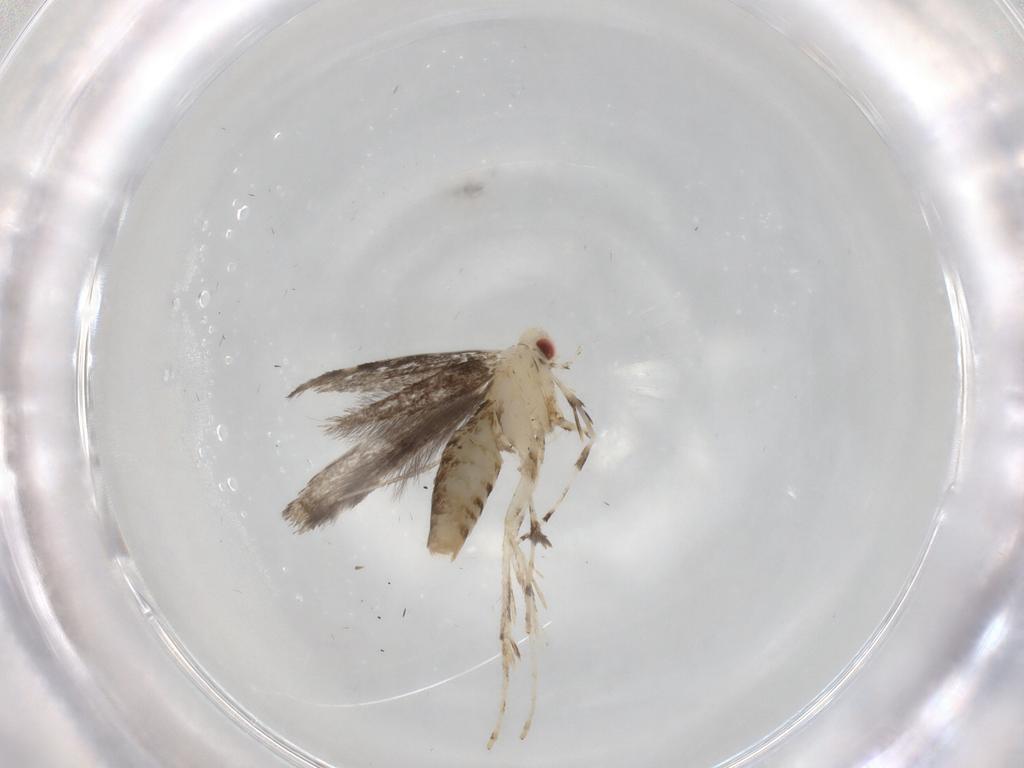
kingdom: Animalia
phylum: Arthropoda
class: Insecta
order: Lepidoptera
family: Gracillariidae
